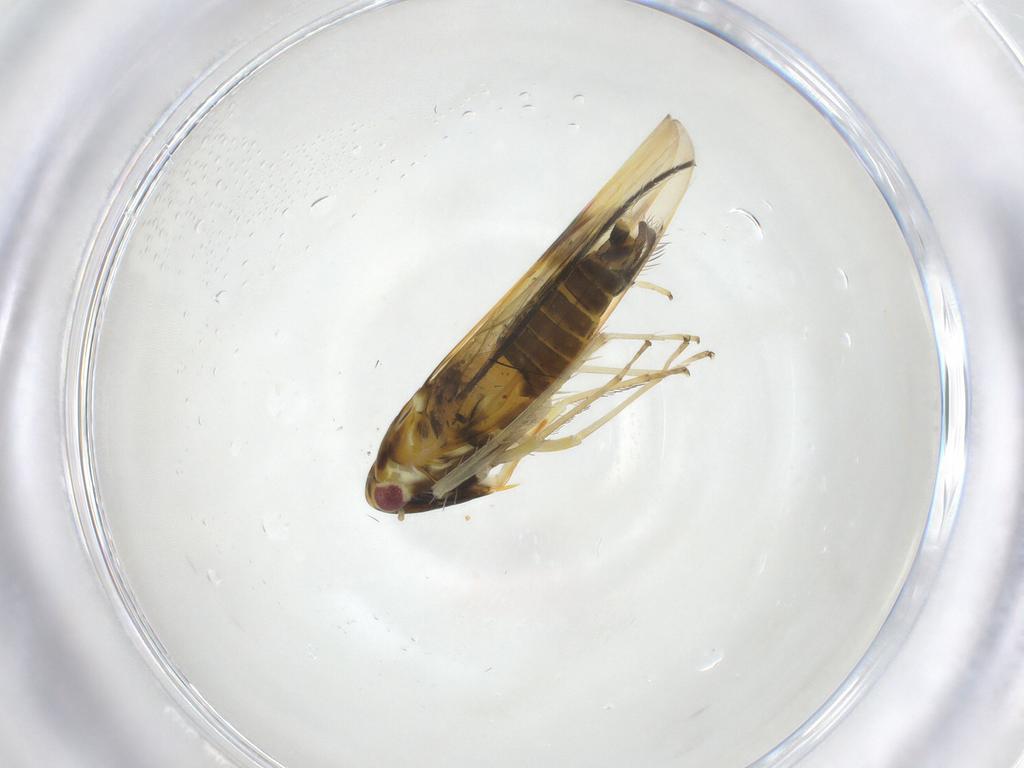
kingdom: Animalia
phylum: Arthropoda
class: Insecta
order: Hemiptera
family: Cicadellidae
